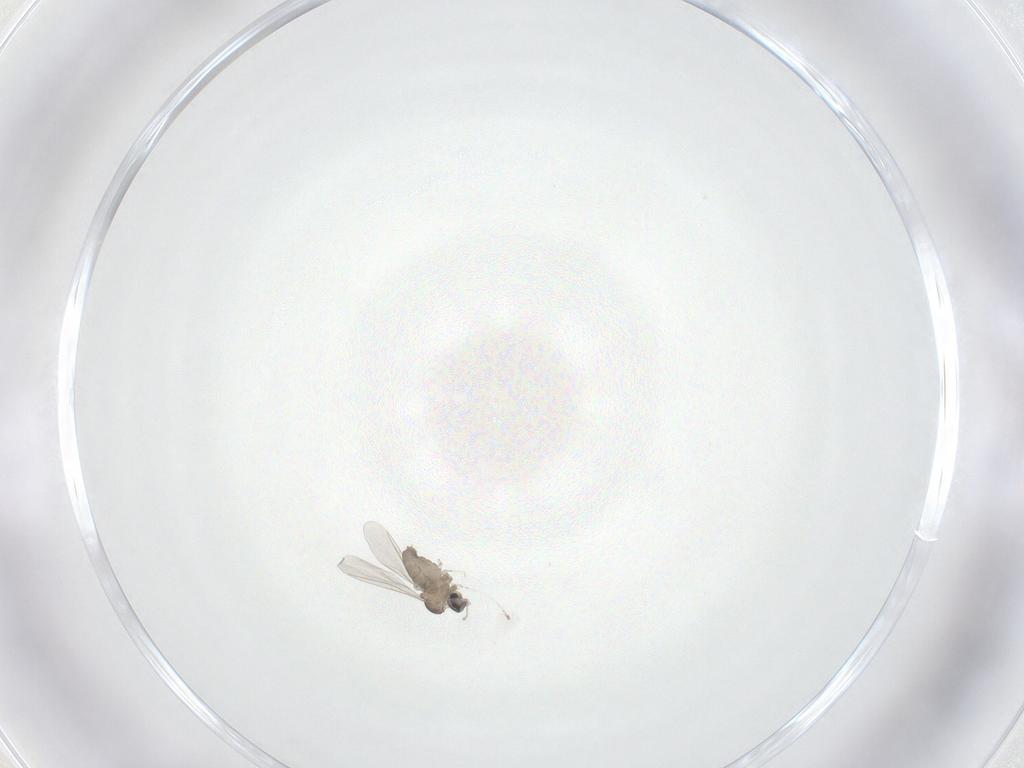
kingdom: Animalia
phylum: Arthropoda
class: Insecta
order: Diptera
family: Cecidomyiidae
